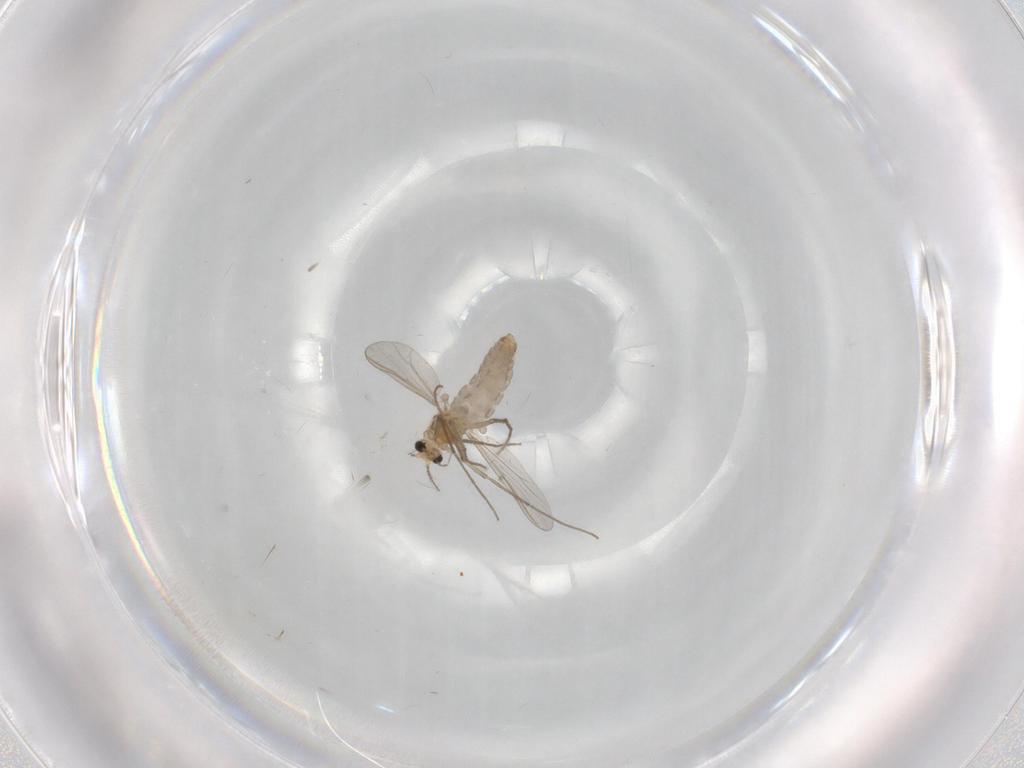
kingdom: Animalia
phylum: Arthropoda
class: Insecta
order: Diptera
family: Chironomidae
